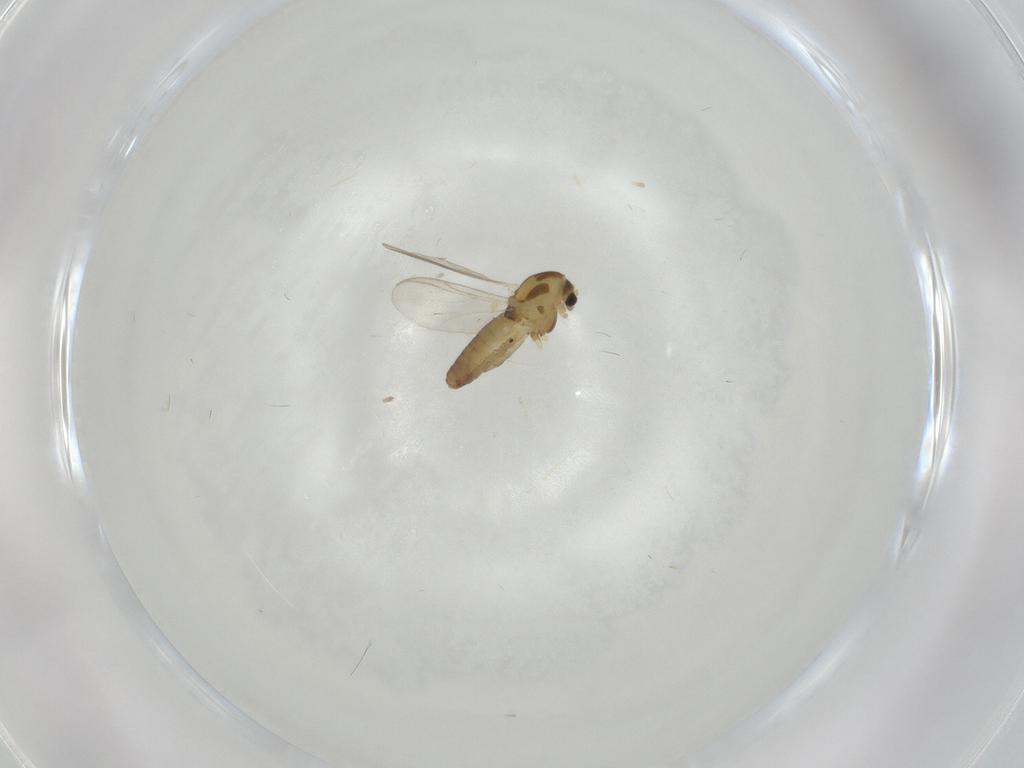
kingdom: Animalia
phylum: Arthropoda
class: Insecta
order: Diptera
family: Chironomidae
